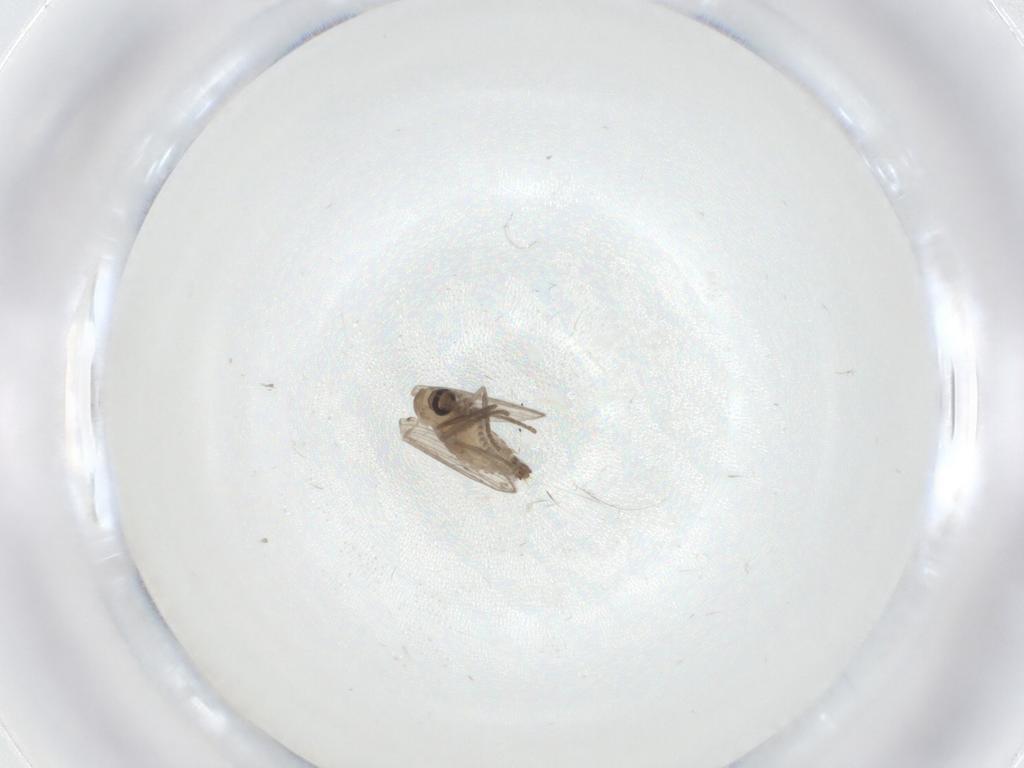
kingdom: Animalia
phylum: Arthropoda
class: Insecta
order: Diptera
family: Psychodidae
